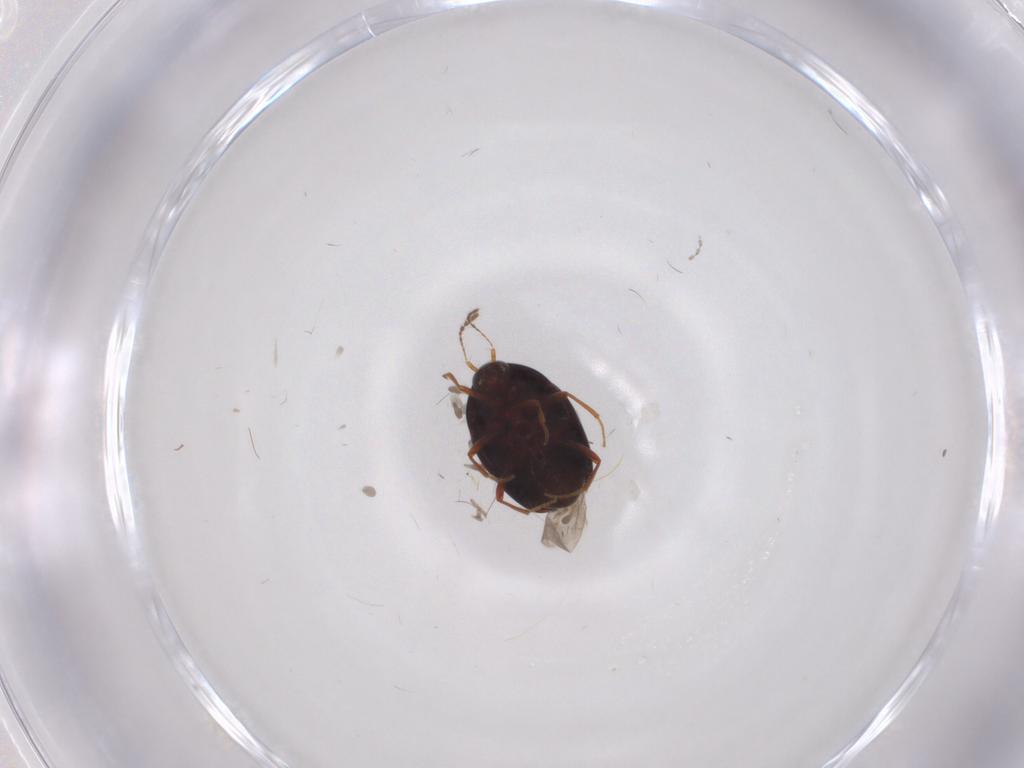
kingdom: Animalia
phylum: Arthropoda
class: Insecta
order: Coleoptera
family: Staphylinidae
